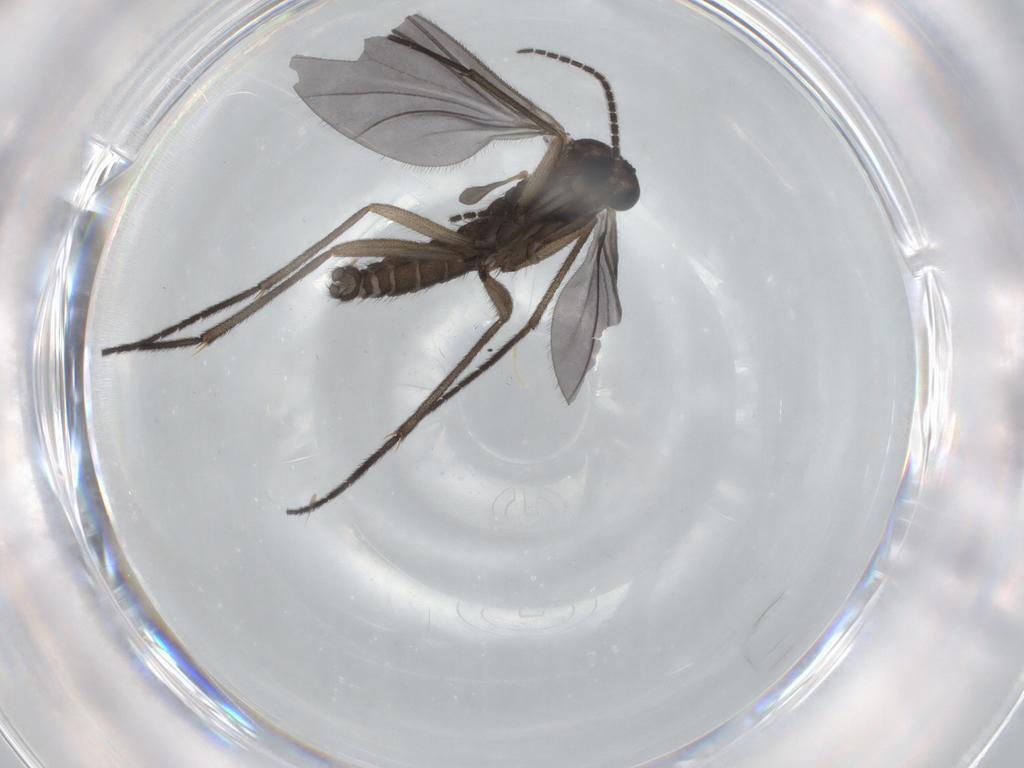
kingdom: Animalia
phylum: Arthropoda
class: Insecta
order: Diptera
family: Sciaridae
